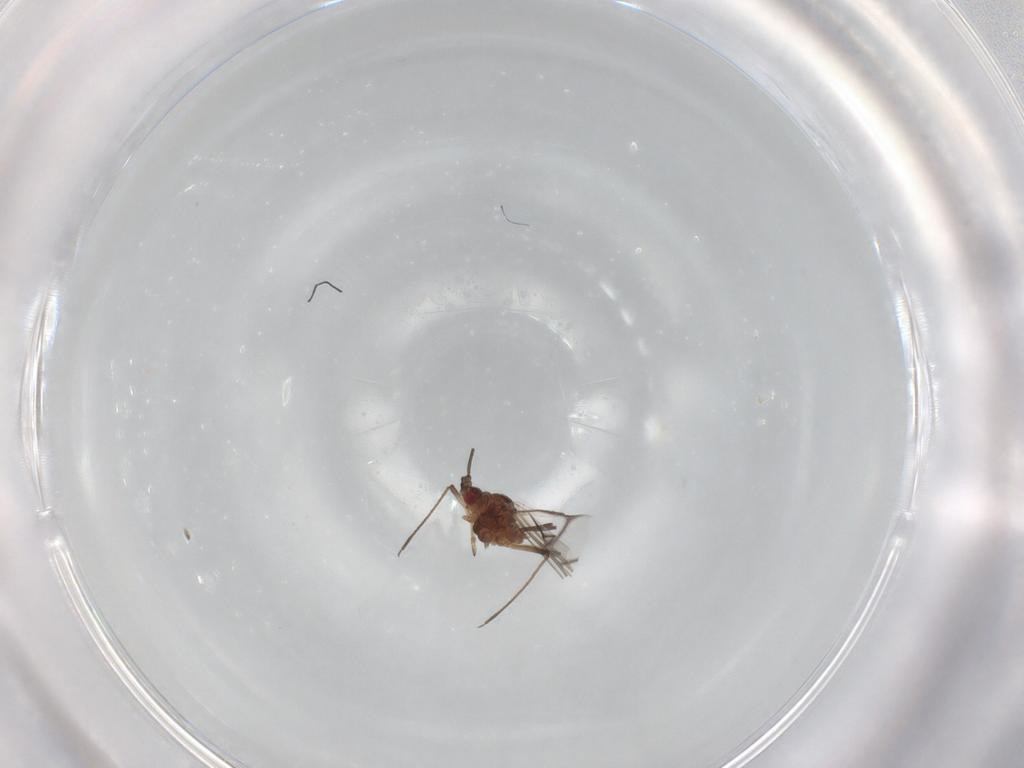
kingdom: Animalia
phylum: Arthropoda
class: Insecta
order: Hemiptera
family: Aphididae
